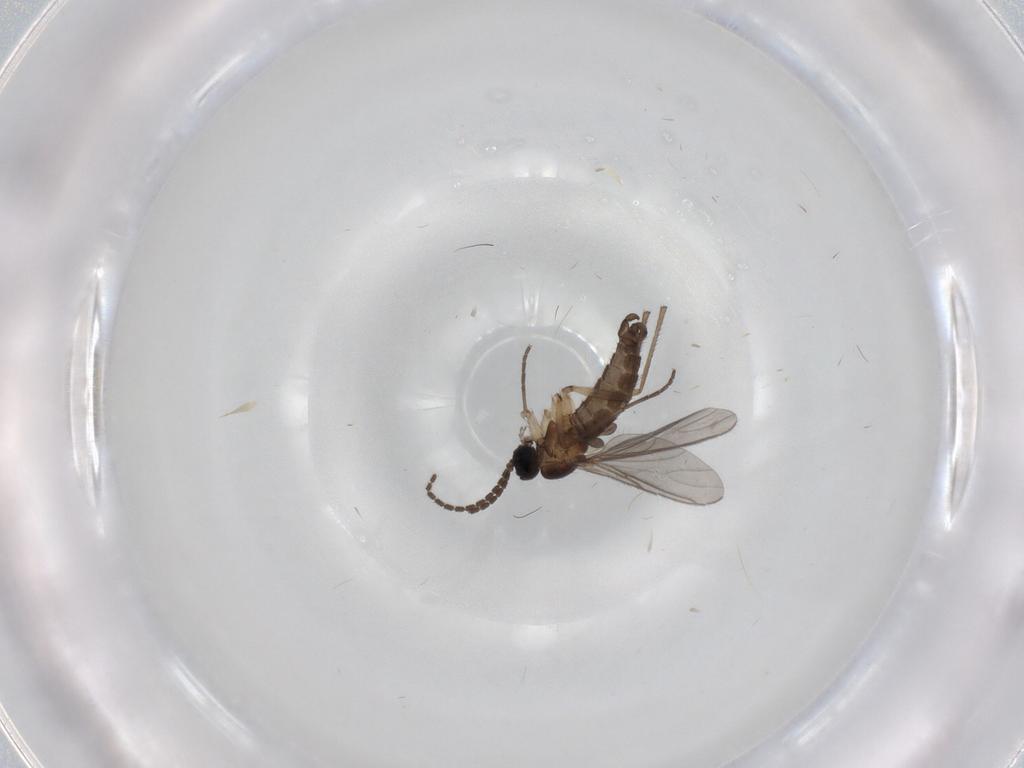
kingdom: Animalia
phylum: Arthropoda
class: Insecta
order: Diptera
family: Sciaridae
